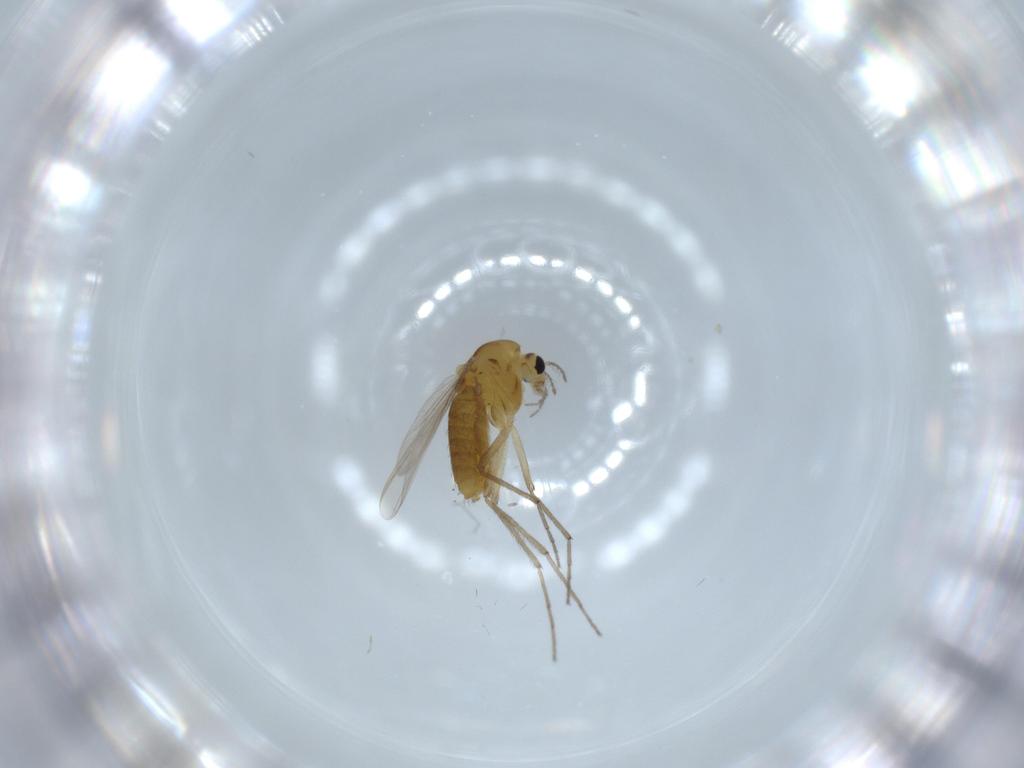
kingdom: Animalia
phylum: Arthropoda
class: Insecta
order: Diptera
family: Chironomidae
